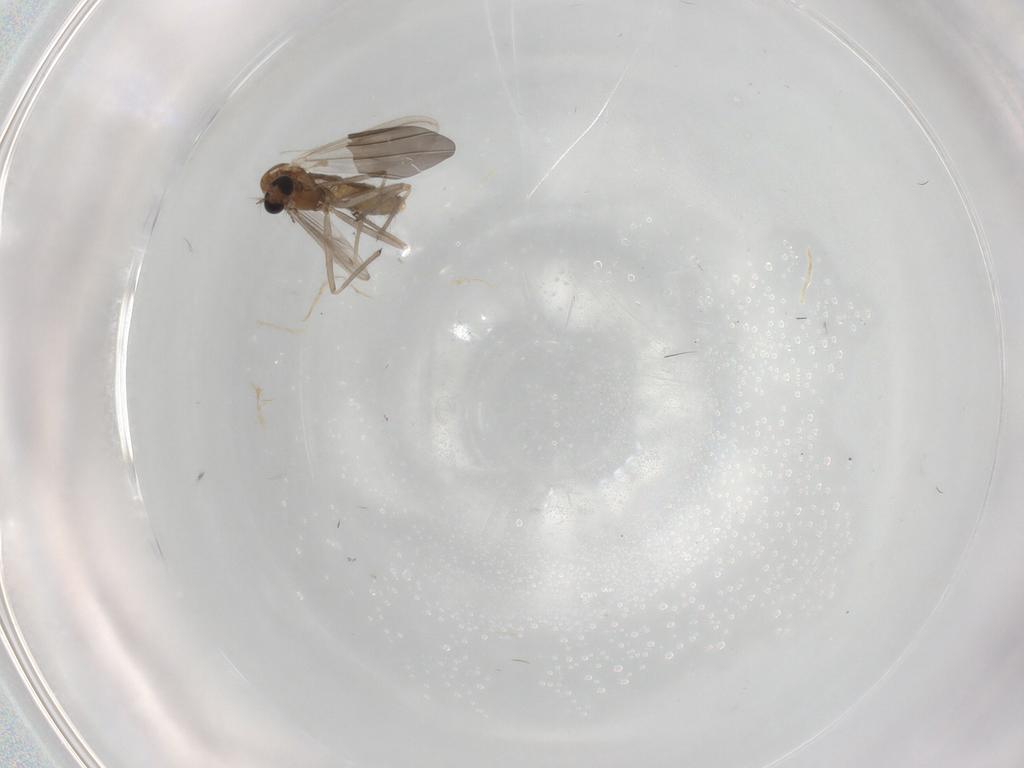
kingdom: Animalia
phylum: Arthropoda
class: Insecta
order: Diptera
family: Chironomidae
